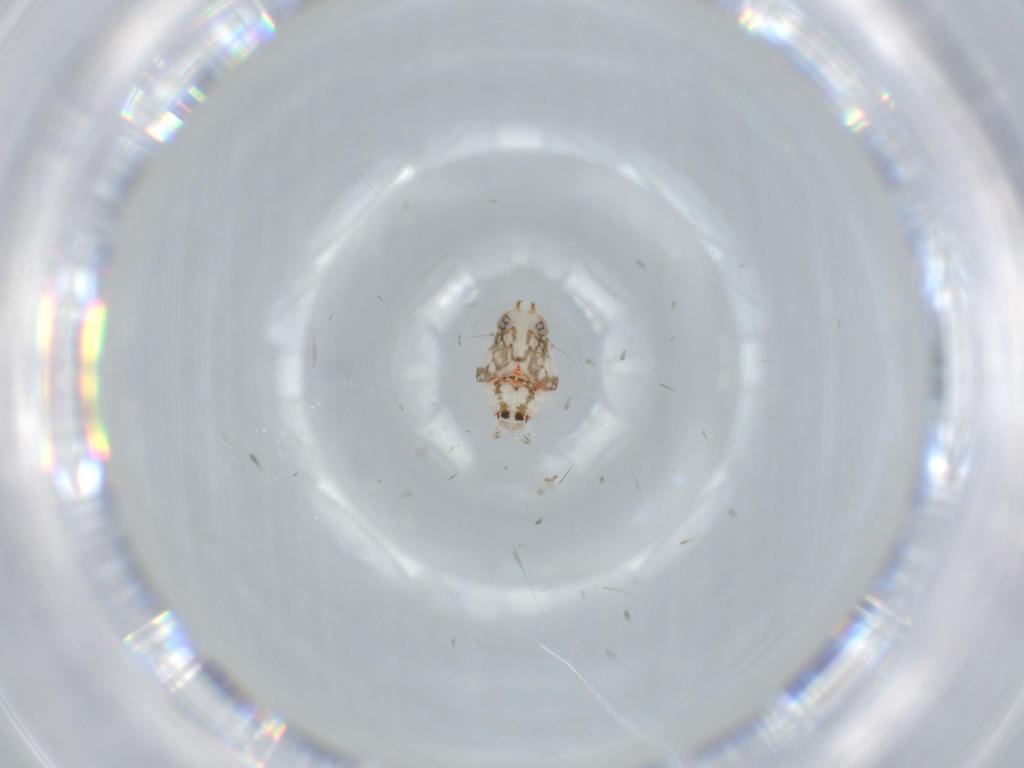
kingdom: Animalia
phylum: Arthropoda
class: Insecta
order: Hemiptera
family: Nogodinidae
